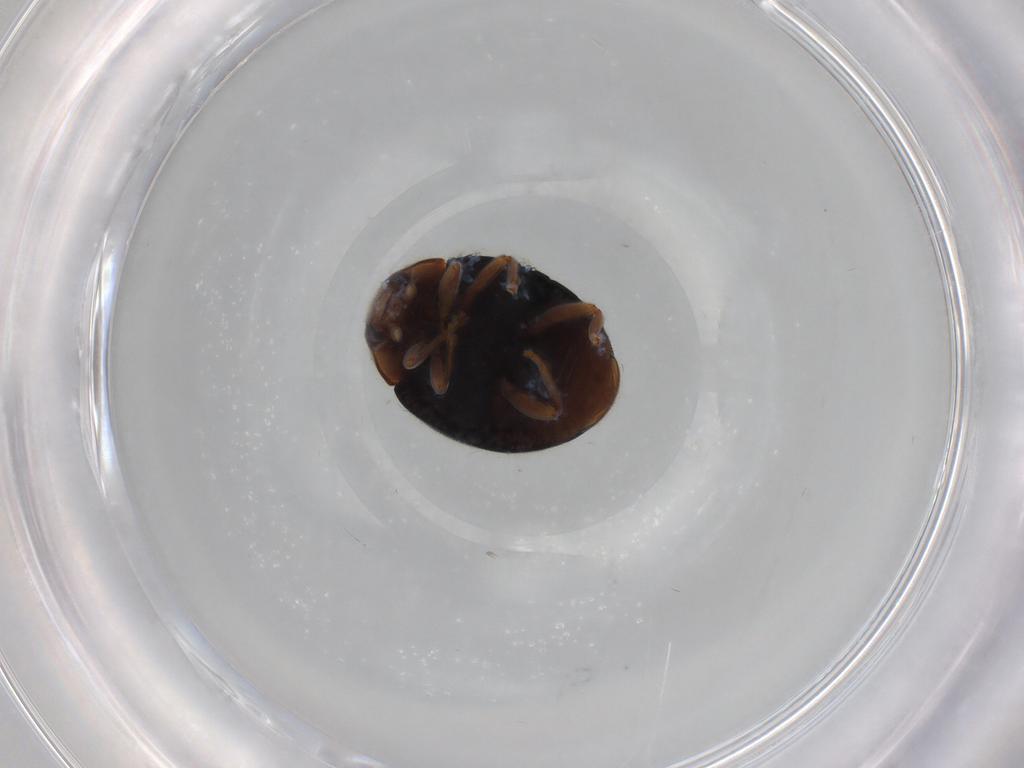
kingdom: Animalia
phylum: Arthropoda
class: Insecta
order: Coleoptera
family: Coccinellidae
